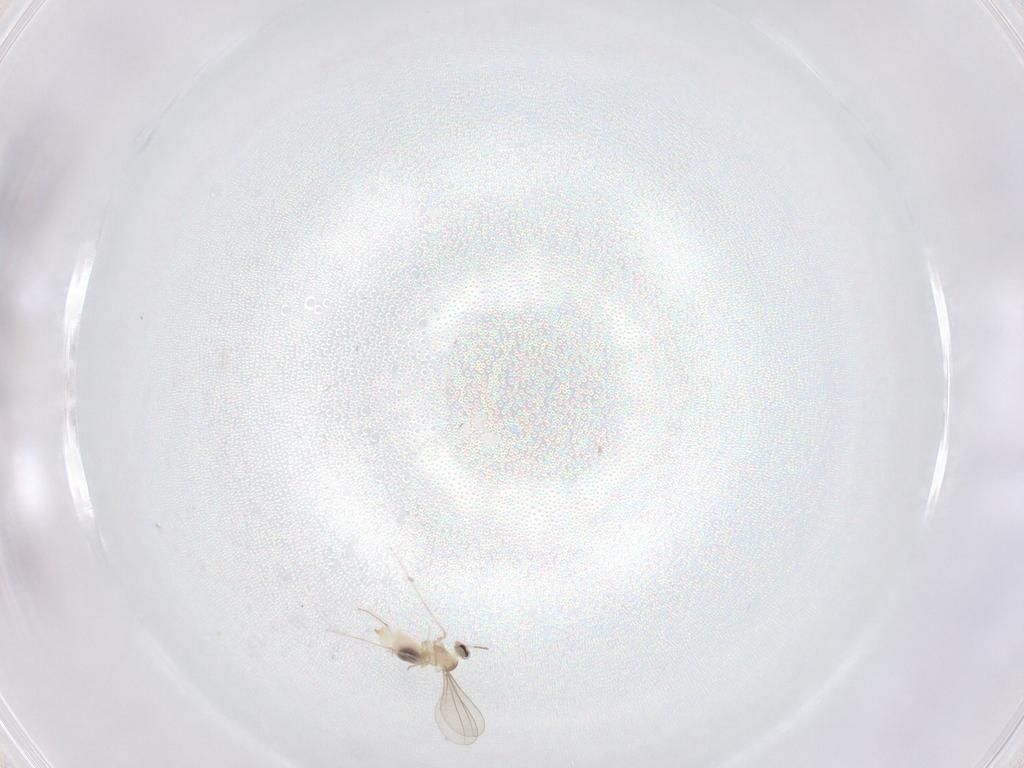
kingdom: Animalia
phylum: Arthropoda
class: Insecta
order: Diptera
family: Cecidomyiidae
